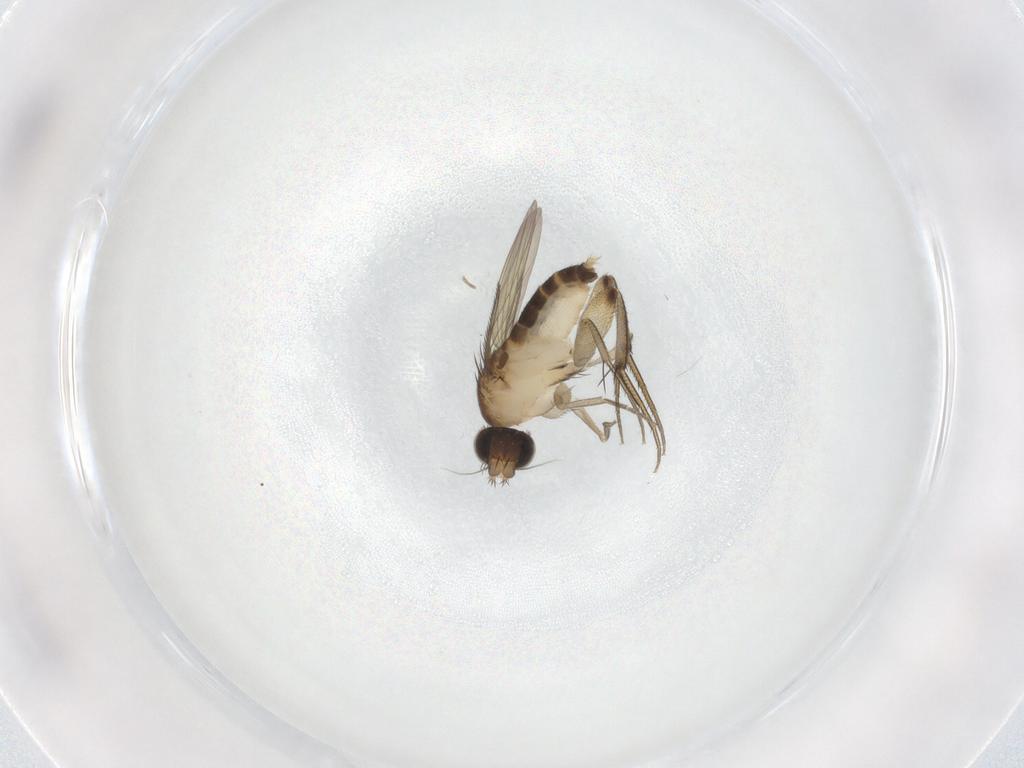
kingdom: Animalia
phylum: Arthropoda
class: Insecta
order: Diptera
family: Phoridae
